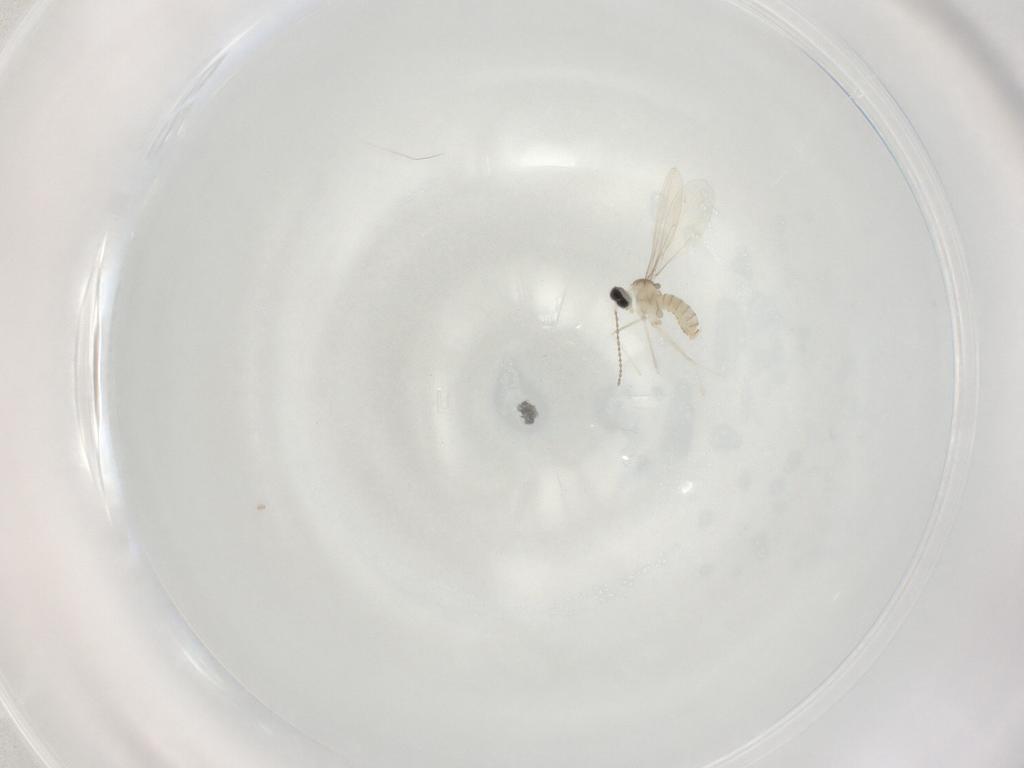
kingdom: Animalia
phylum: Arthropoda
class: Insecta
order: Diptera
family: Cecidomyiidae
